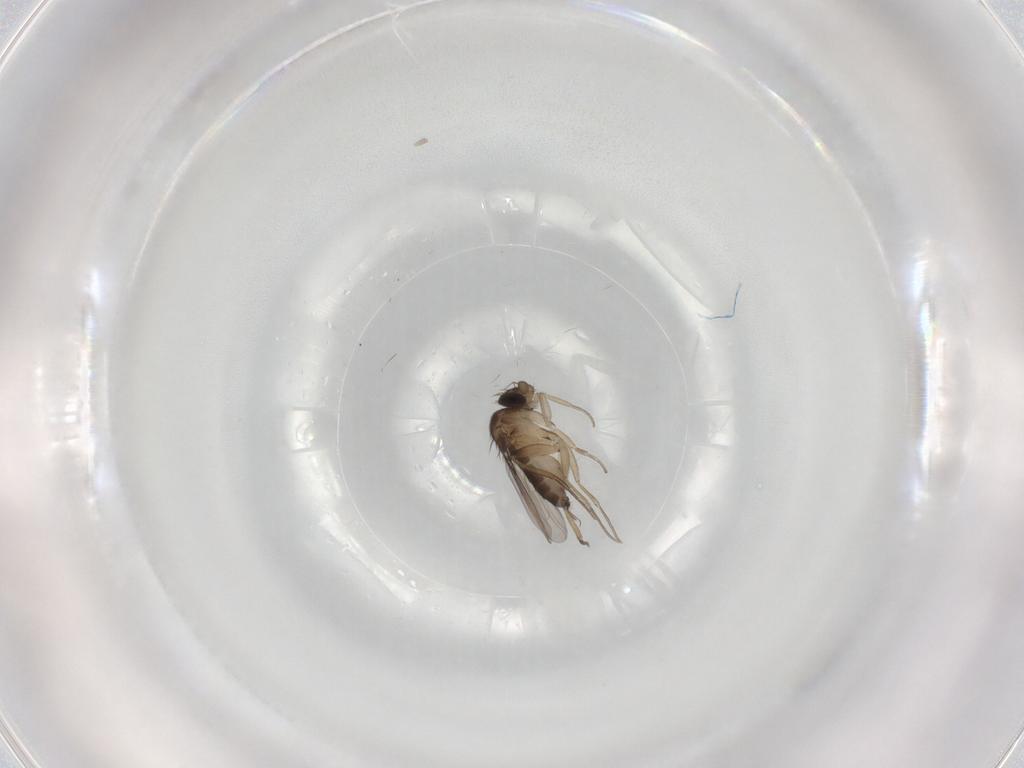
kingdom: Animalia
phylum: Arthropoda
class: Insecta
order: Diptera
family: Phoridae
